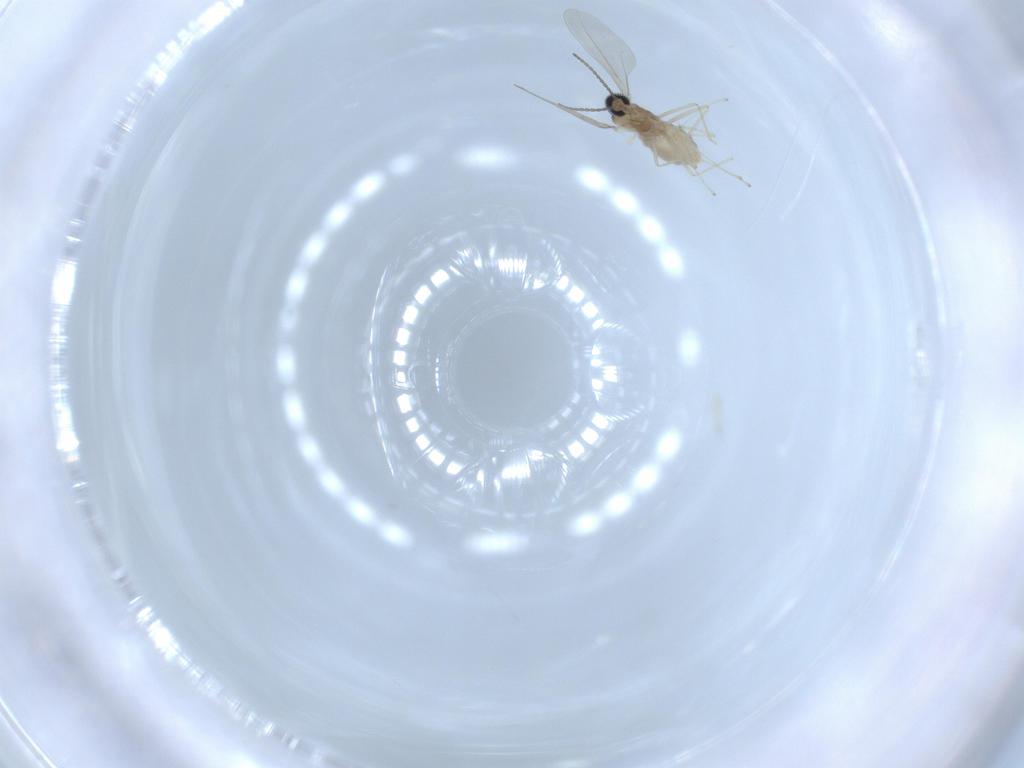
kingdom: Animalia
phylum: Arthropoda
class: Insecta
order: Diptera
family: Cecidomyiidae
